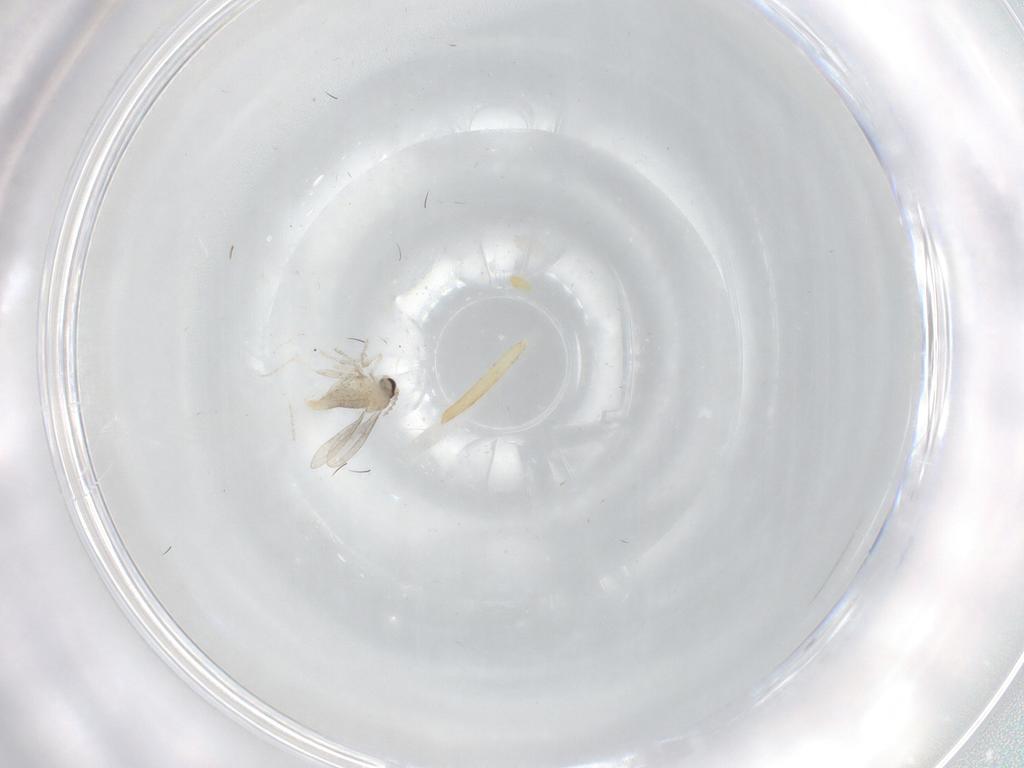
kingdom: Animalia
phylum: Arthropoda
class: Insecta
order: Diptera
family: Cecidomyiidae
